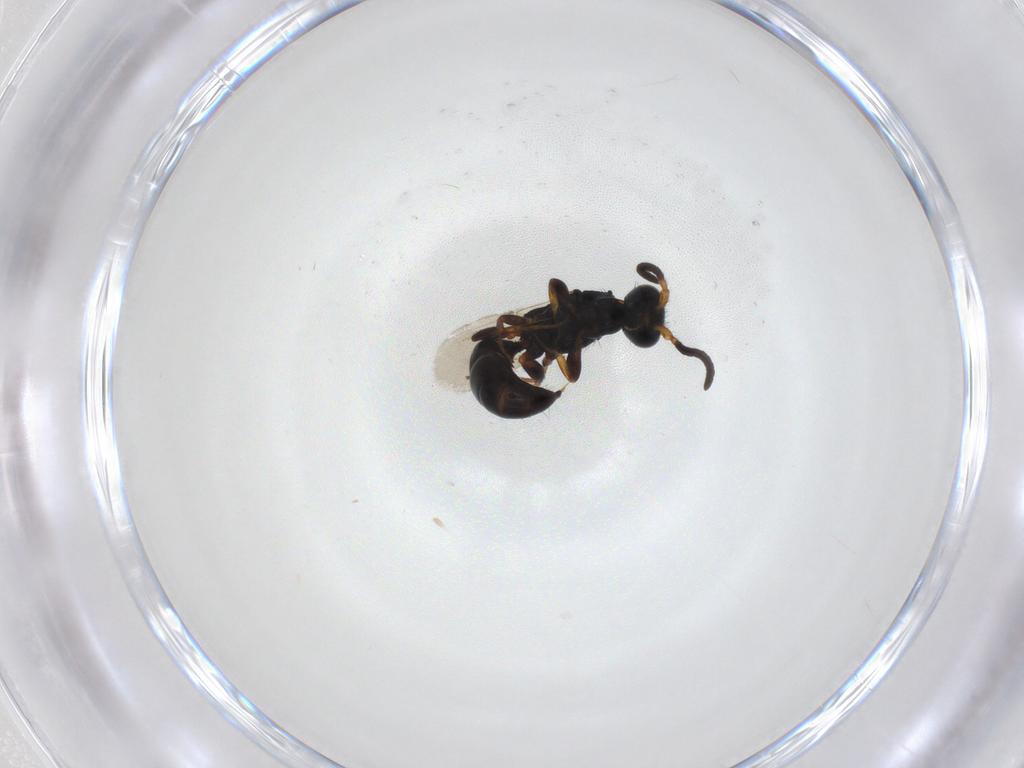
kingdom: Animalia
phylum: Arthropoda
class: Insecta
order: Hymenoptera
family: Bethylidae
